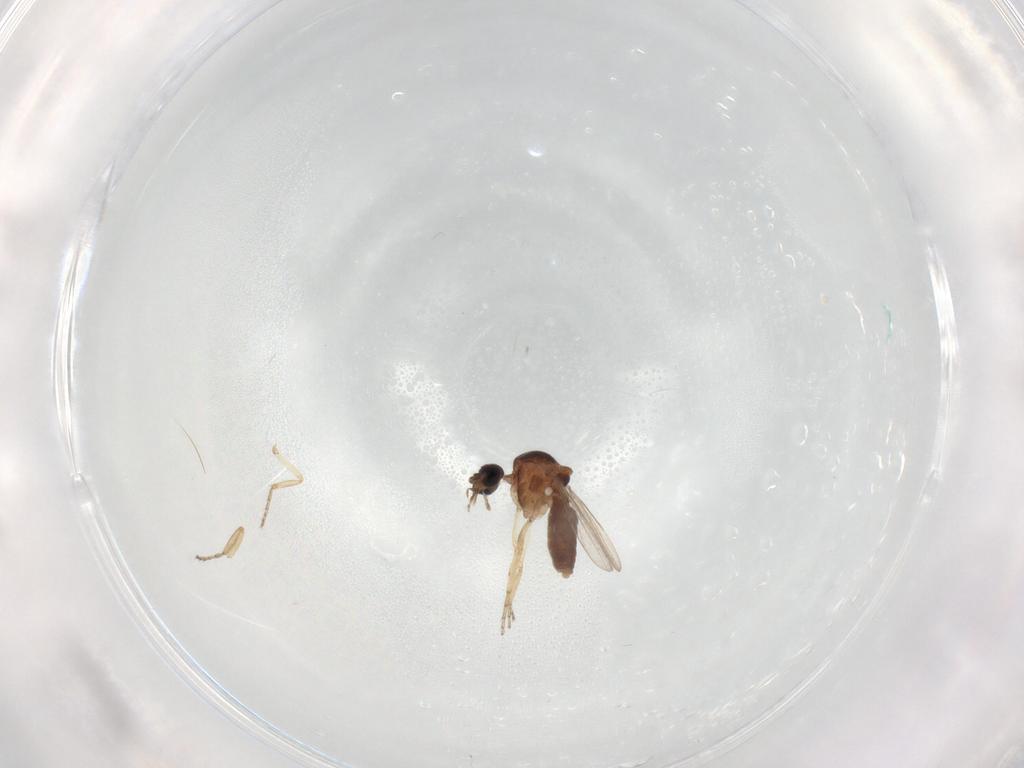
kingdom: Animalia
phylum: Arthropoda
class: Insecta
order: Diptera
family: Ceratopogonidae
